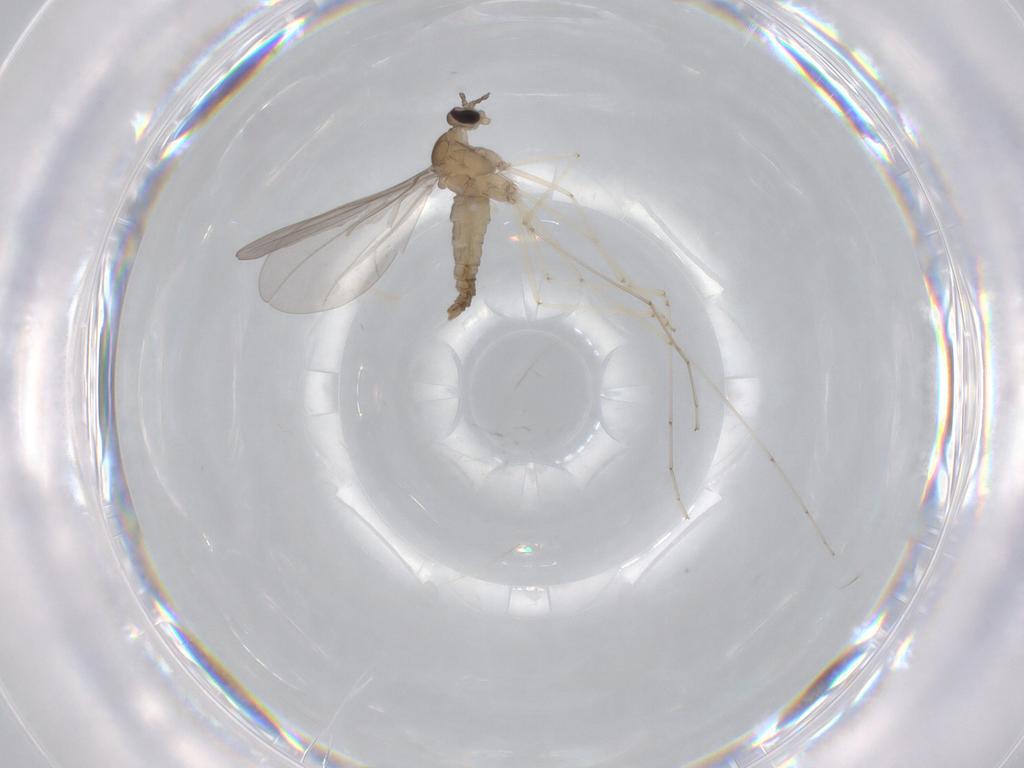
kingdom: Animalia
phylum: Arthropoda
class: Insecta
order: Diptera
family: Cecidomyiidae
